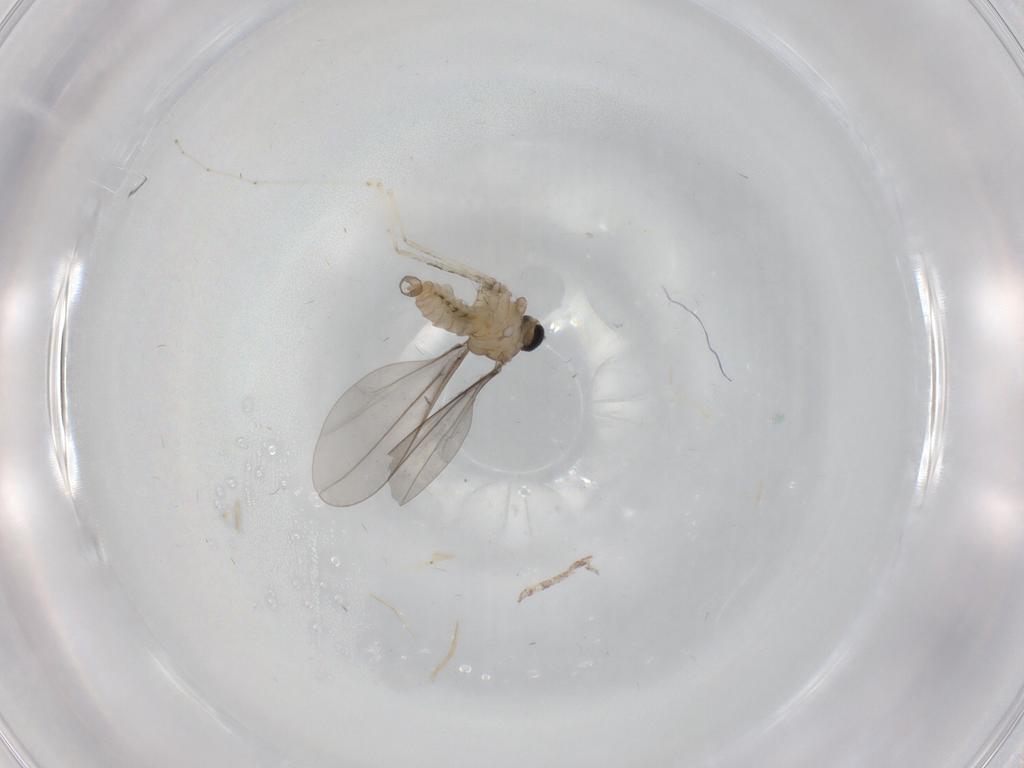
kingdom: Animalia
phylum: Arthropoda
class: Insecta
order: Diptera
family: Cecidomyiidae
